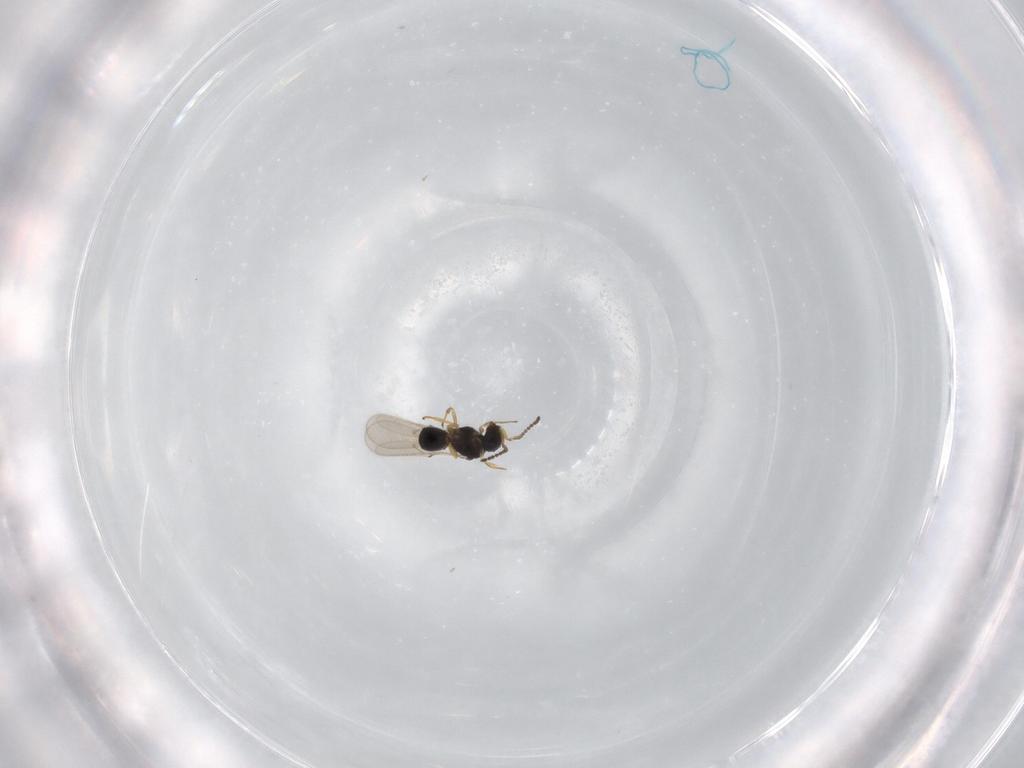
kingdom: Animalia
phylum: Arthropoda
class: Insecta
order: Hymenoptera
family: Scelionidae
